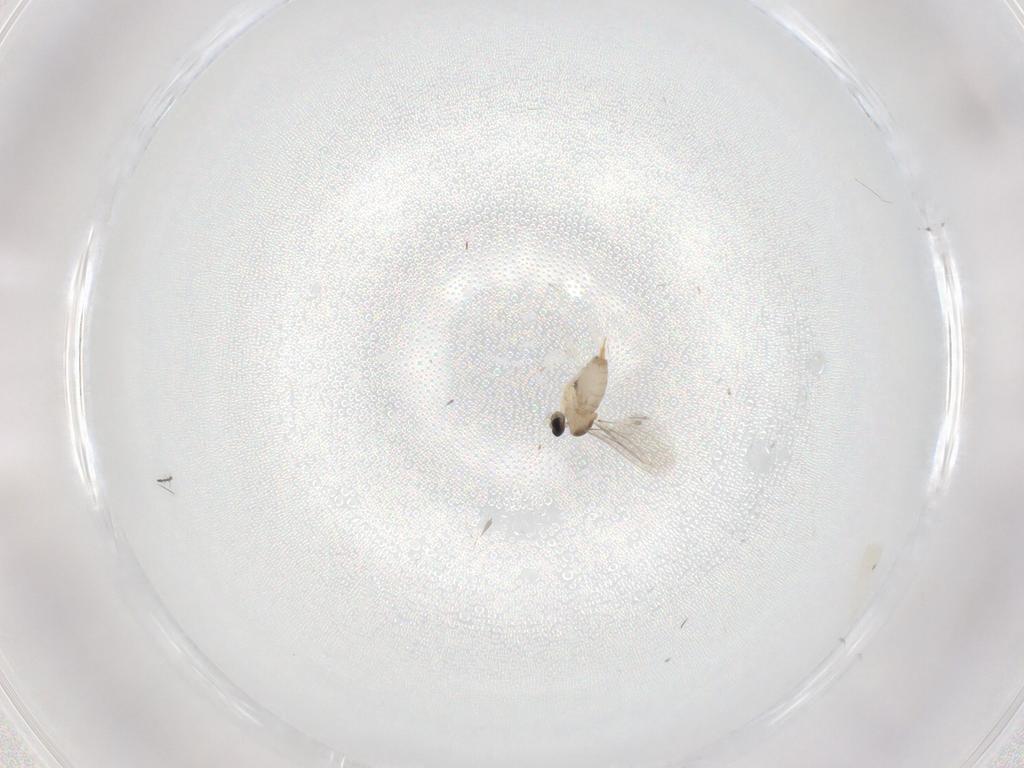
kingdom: Animalia
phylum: Arthropoda
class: Insecta
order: Diptera
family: Cecidomyiidae
